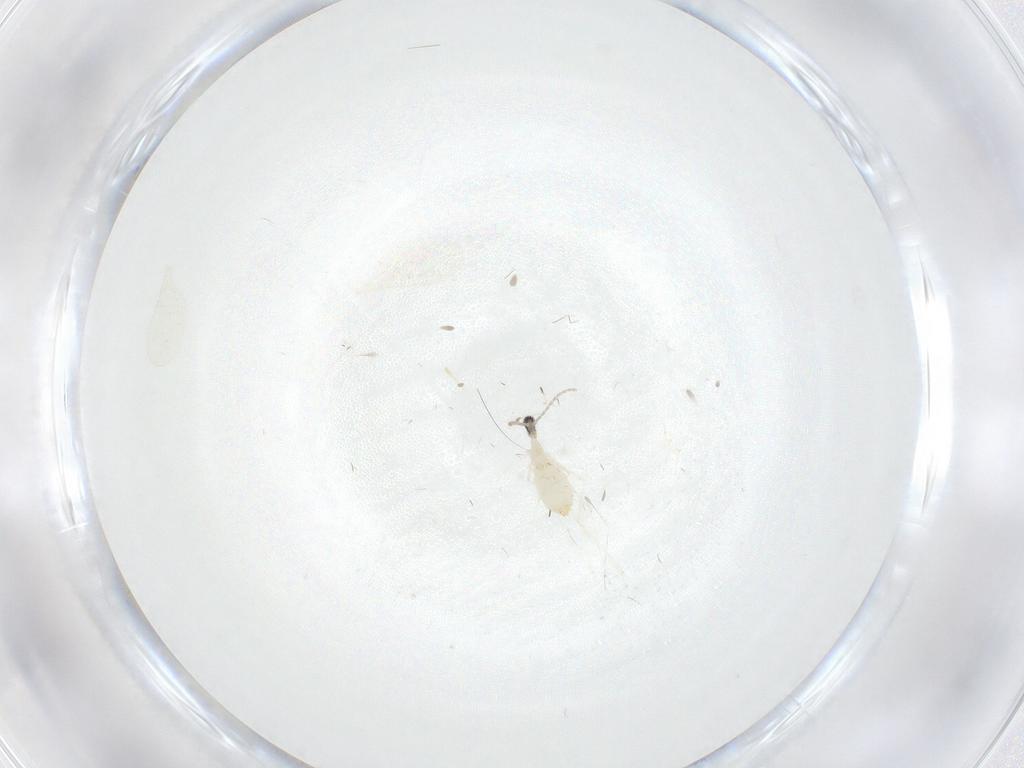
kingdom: Animalia
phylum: Arthropoda
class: Insecta
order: Diptera
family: Cecidomyiidae
